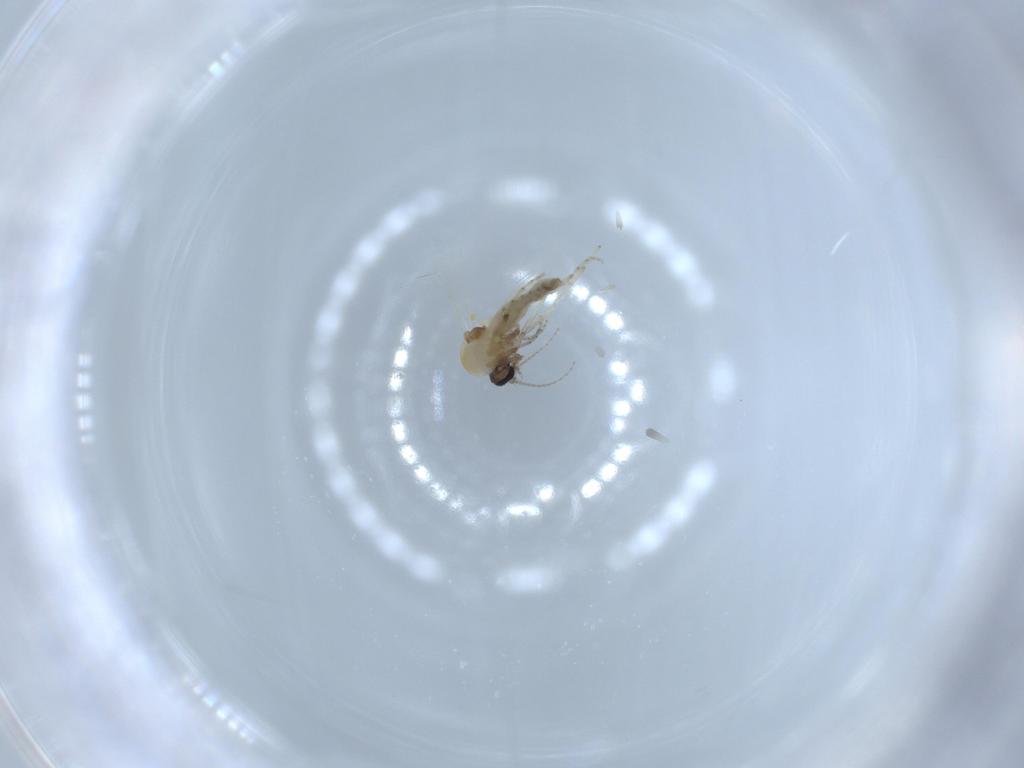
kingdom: Animalia
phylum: Arthropoda
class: Insecta
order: Diptera
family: Ceratopogonidae
